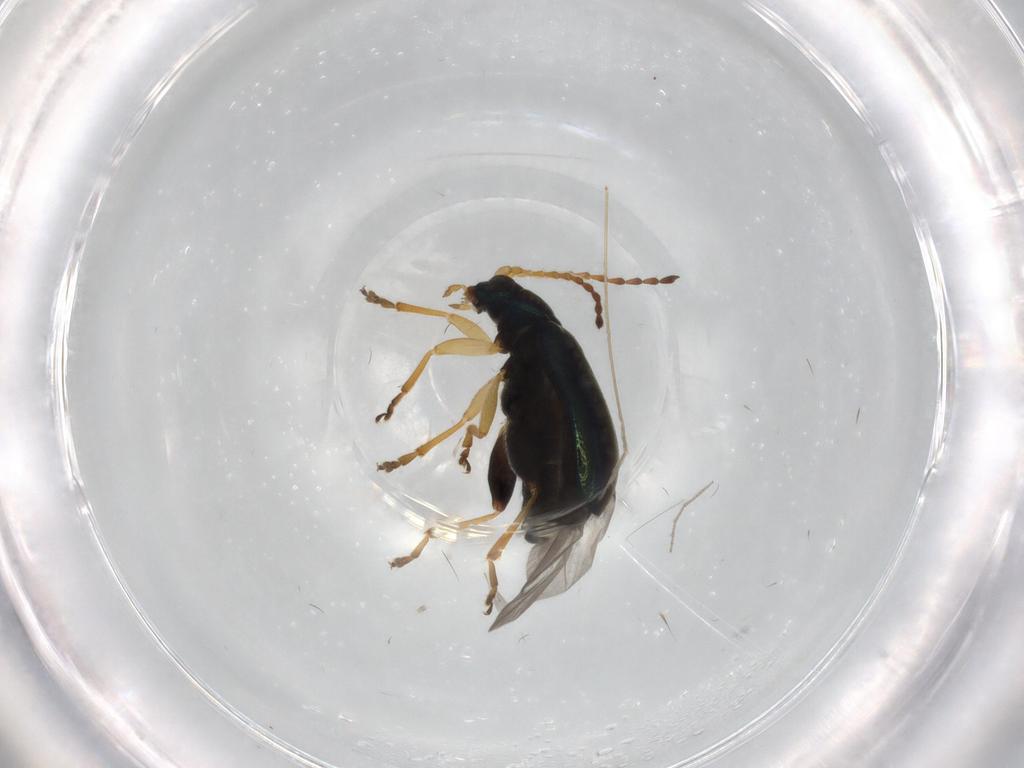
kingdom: Animalia
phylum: Arthropoda
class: Insecta
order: Coleoptera
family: Chrysomelidae
